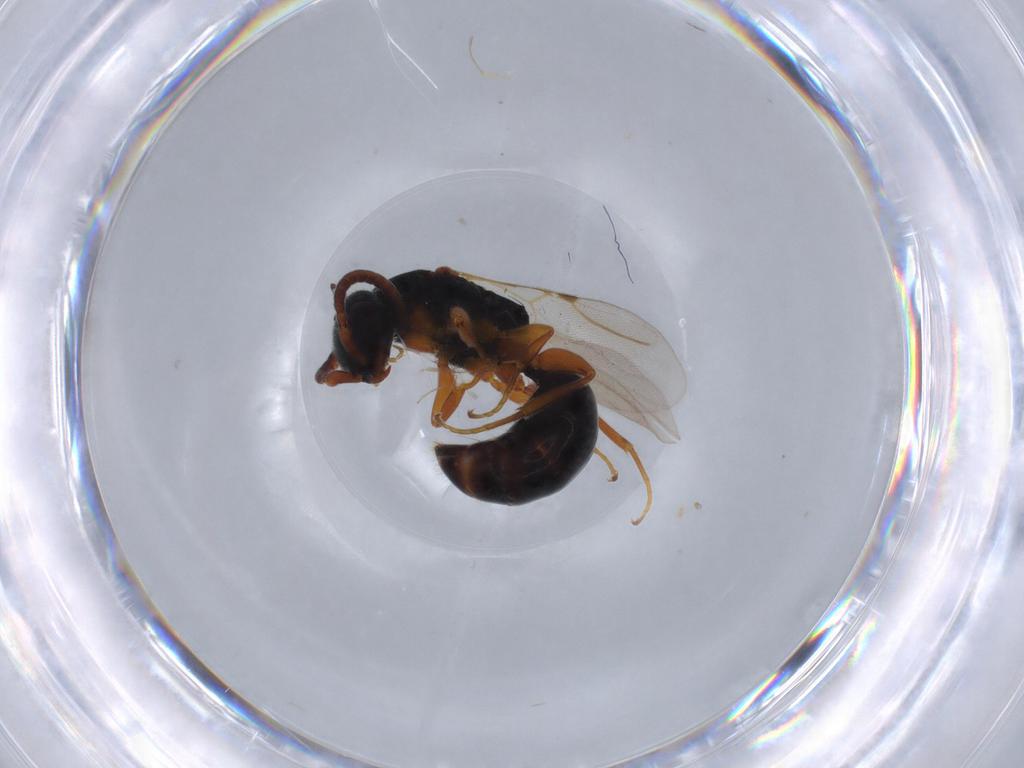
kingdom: Animalia
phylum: Arthropoda
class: Insecta
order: Hymenoptera
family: Bethylidae
